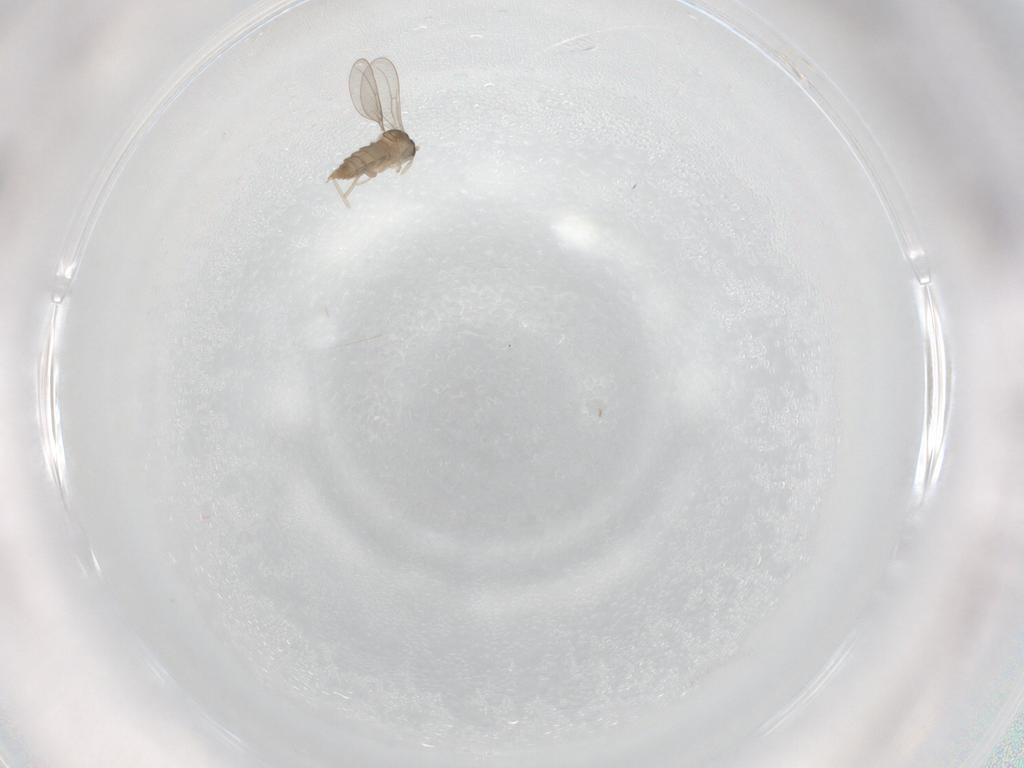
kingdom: Animalia
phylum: Arthropoda
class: Insecta
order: Diptera
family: Cecidomyiidae
